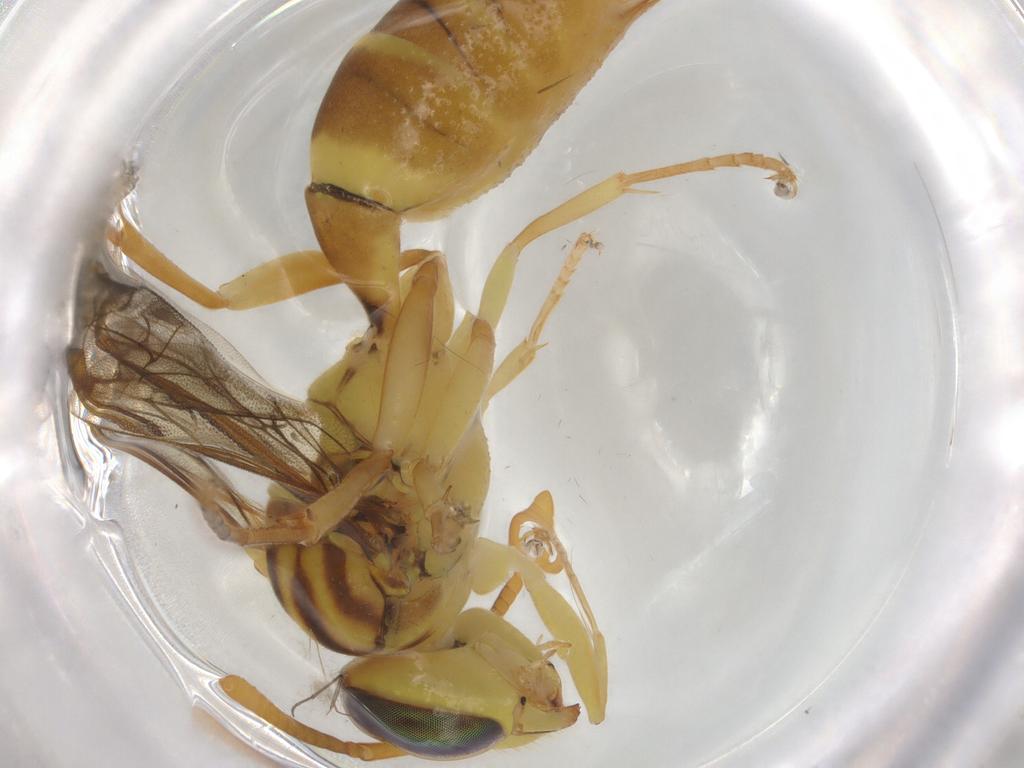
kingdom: Animalia
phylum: Arthropoda
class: Insecta
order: Hymenoptera
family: Vespidae
